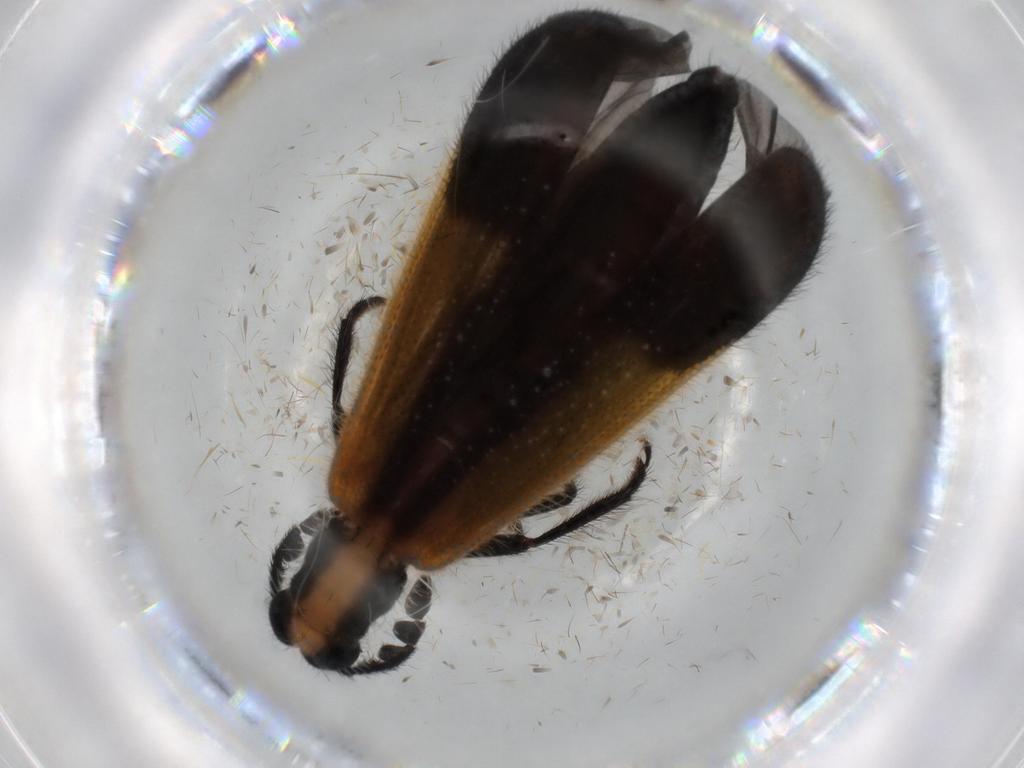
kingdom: Animalia
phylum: Arthropoda
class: Insecta
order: Coleoptera
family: Cleridae
